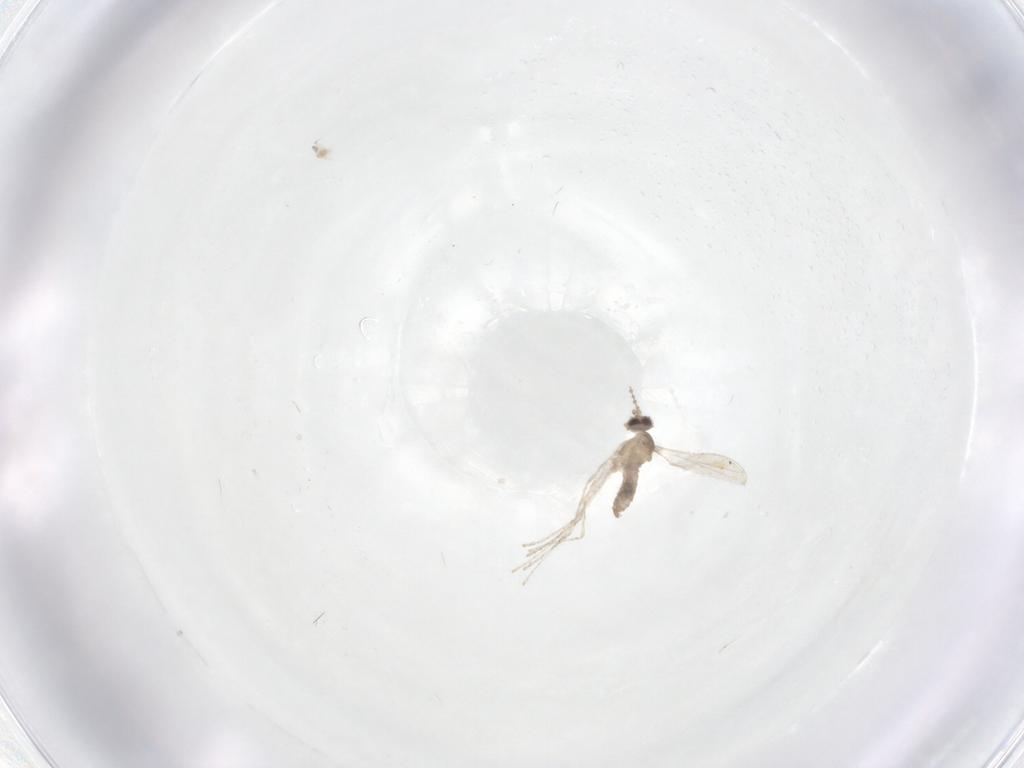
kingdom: Animalia
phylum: Arthropoda
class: Insecta
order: Diptera
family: Cecidomyiidae
